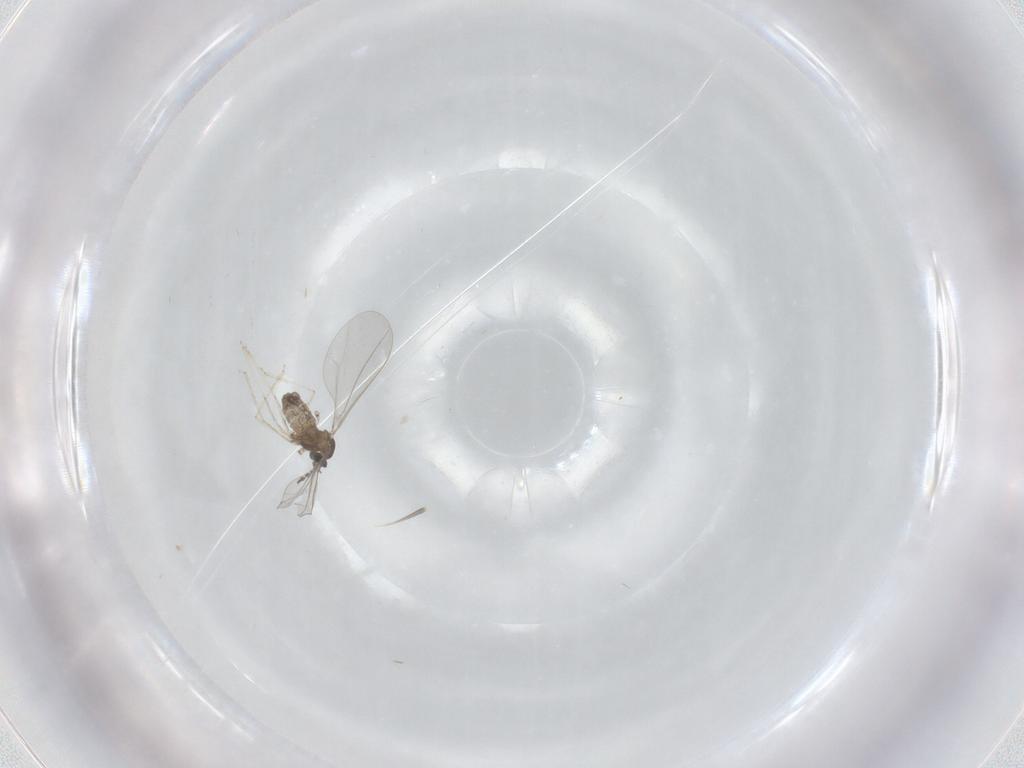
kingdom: Animalia
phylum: Arthropoda
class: Insecta
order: Diptera
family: Cecidomyiidae
